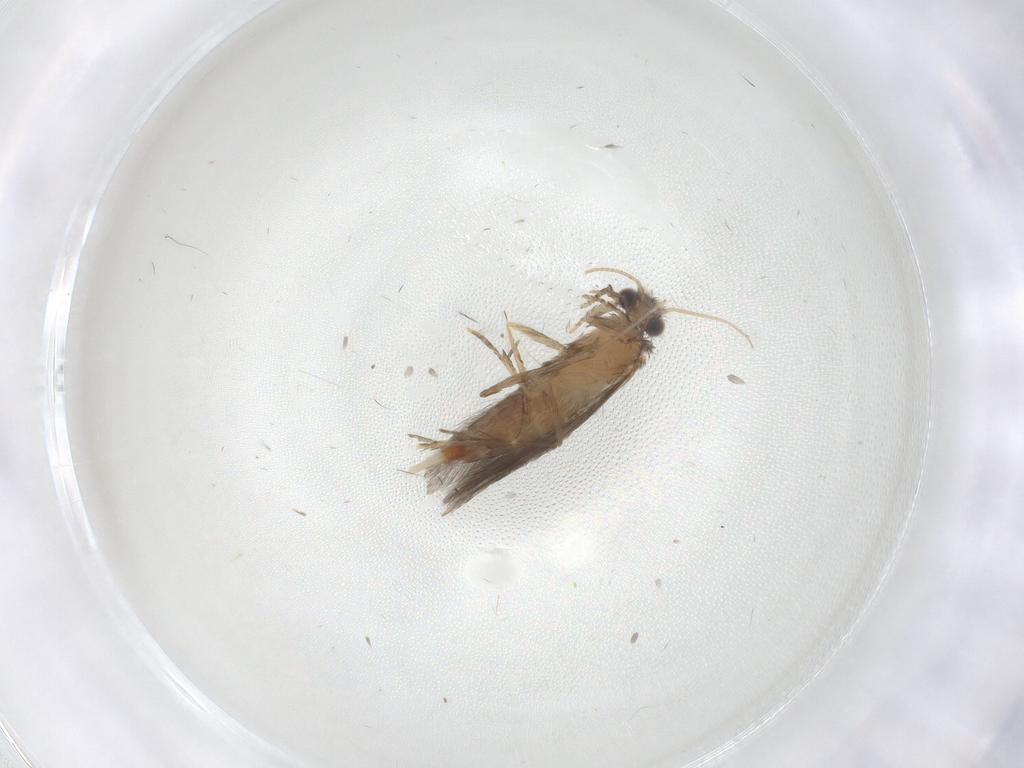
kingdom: Animalia
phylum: Arthropoda
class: Insecta
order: Trichoptera
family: Hydroptilidae
